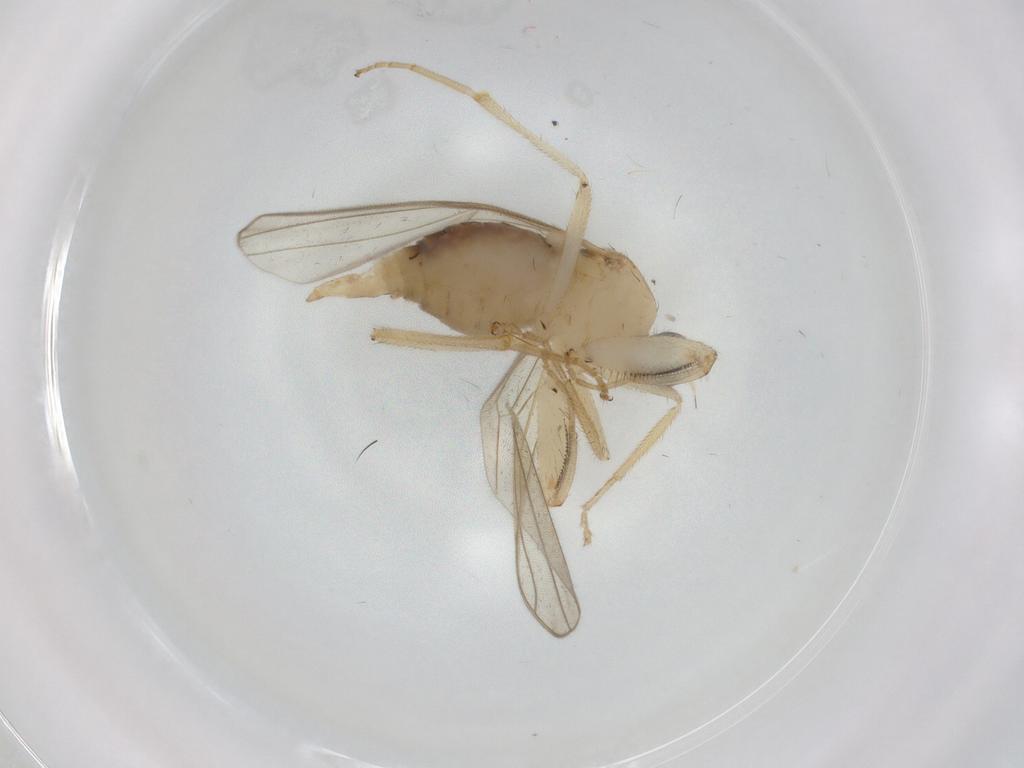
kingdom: Animalia
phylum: Arthropoda
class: Insecta
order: Diptera
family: Hybotidae
